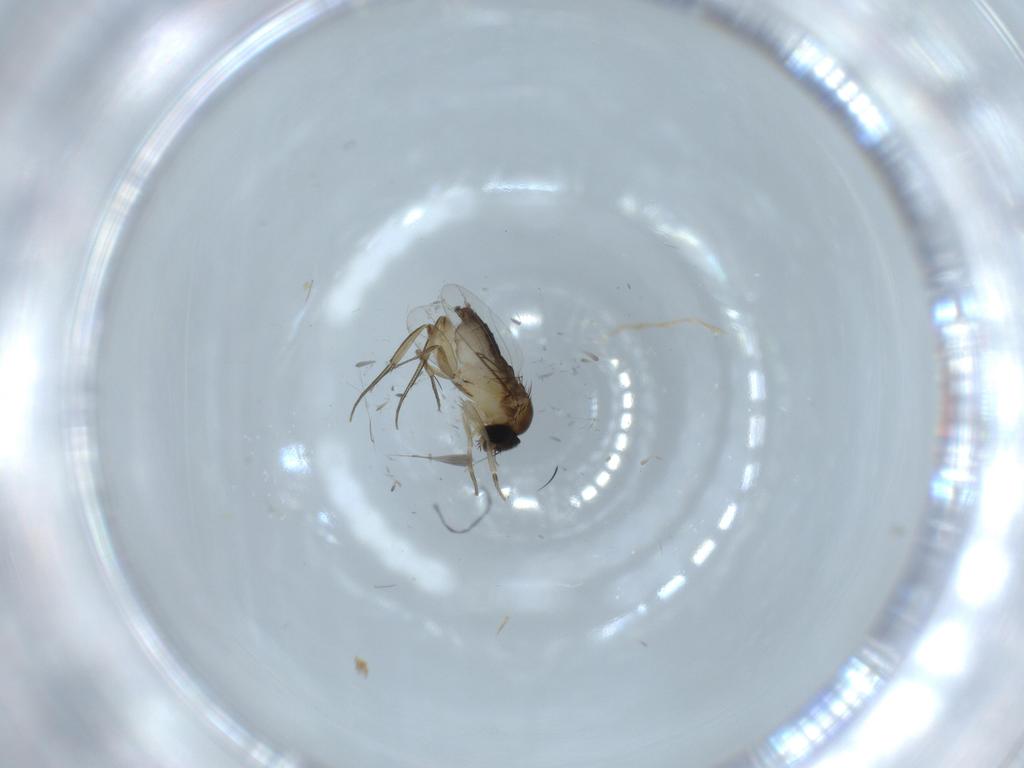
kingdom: Animalia
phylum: Arthropoda
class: Insecta
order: Diptera
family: Phoridae
